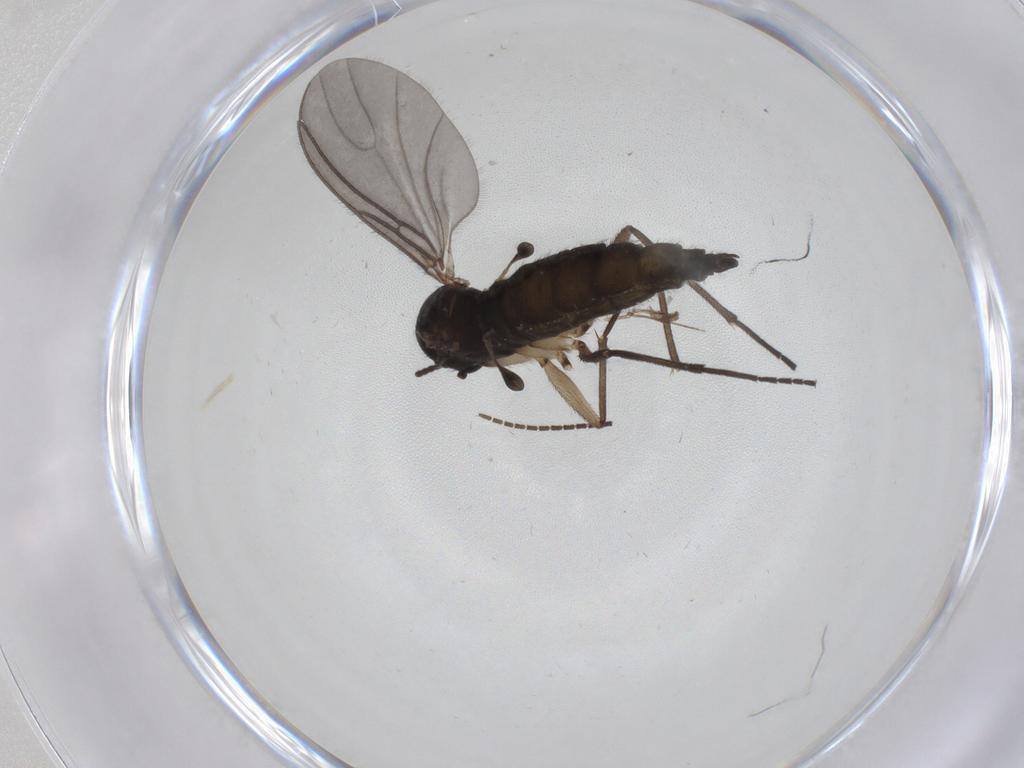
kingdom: Animalia
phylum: Arthropoda
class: Insecta
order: Diptera
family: Sciaridae
